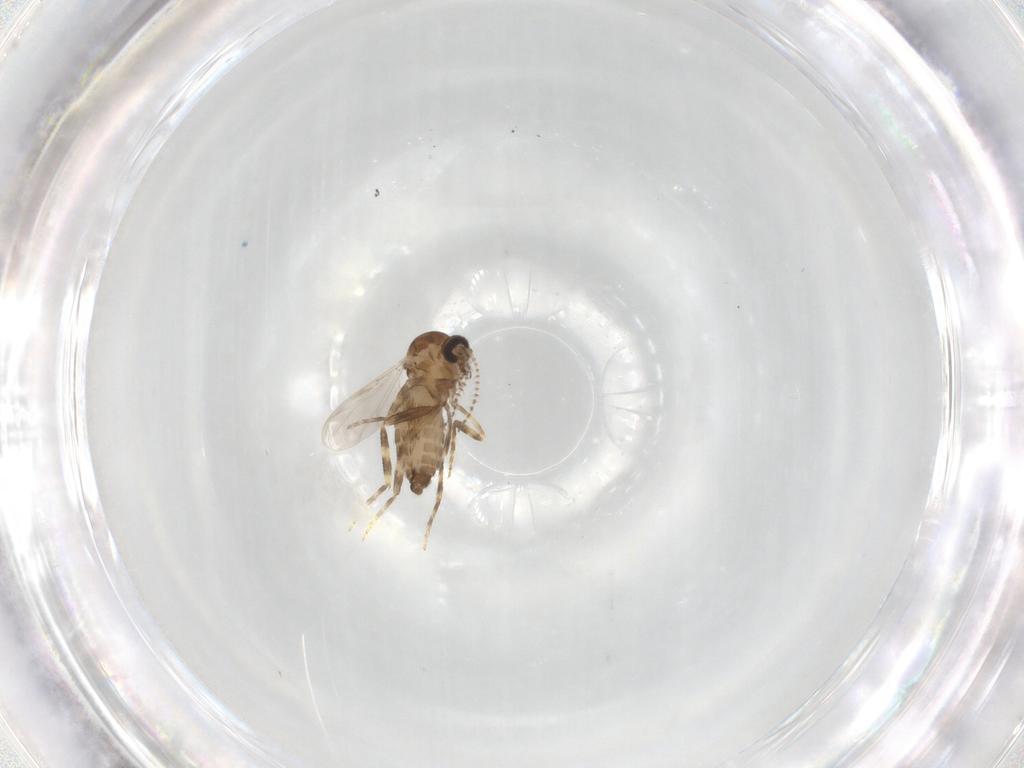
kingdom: Animalia
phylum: Arthropoda
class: Insecta
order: Diptera
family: Ceratopogonidae
